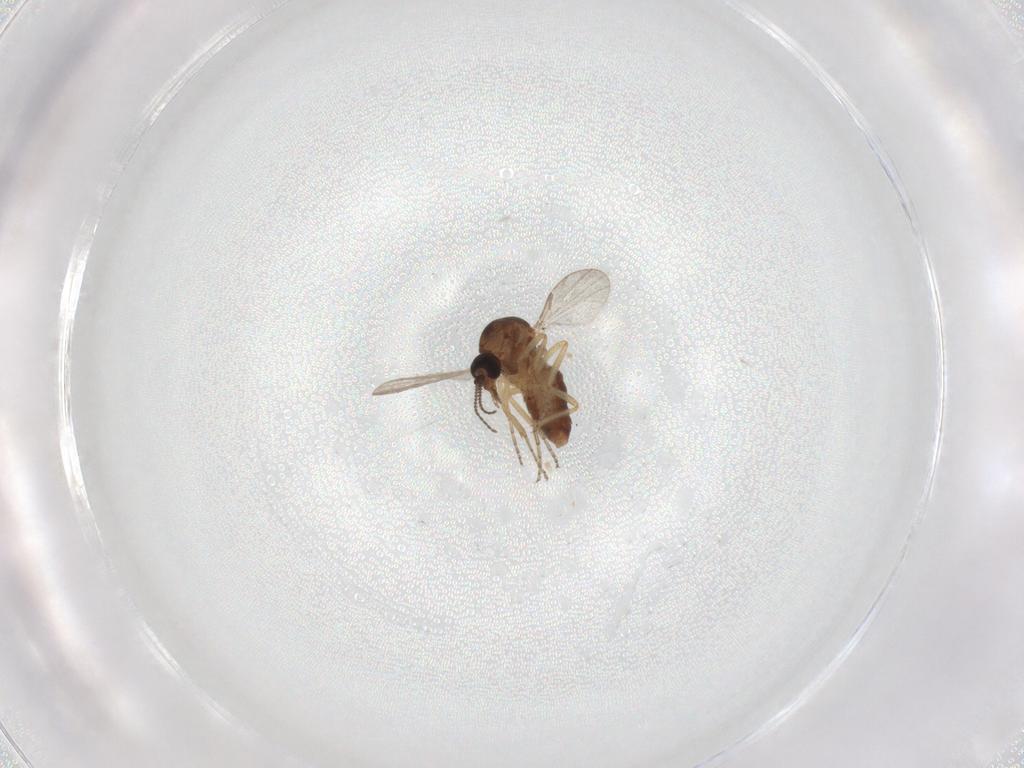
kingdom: Animalia
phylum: Arthropoda
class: Insecta
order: Diptera
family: Ceratopogonidae
